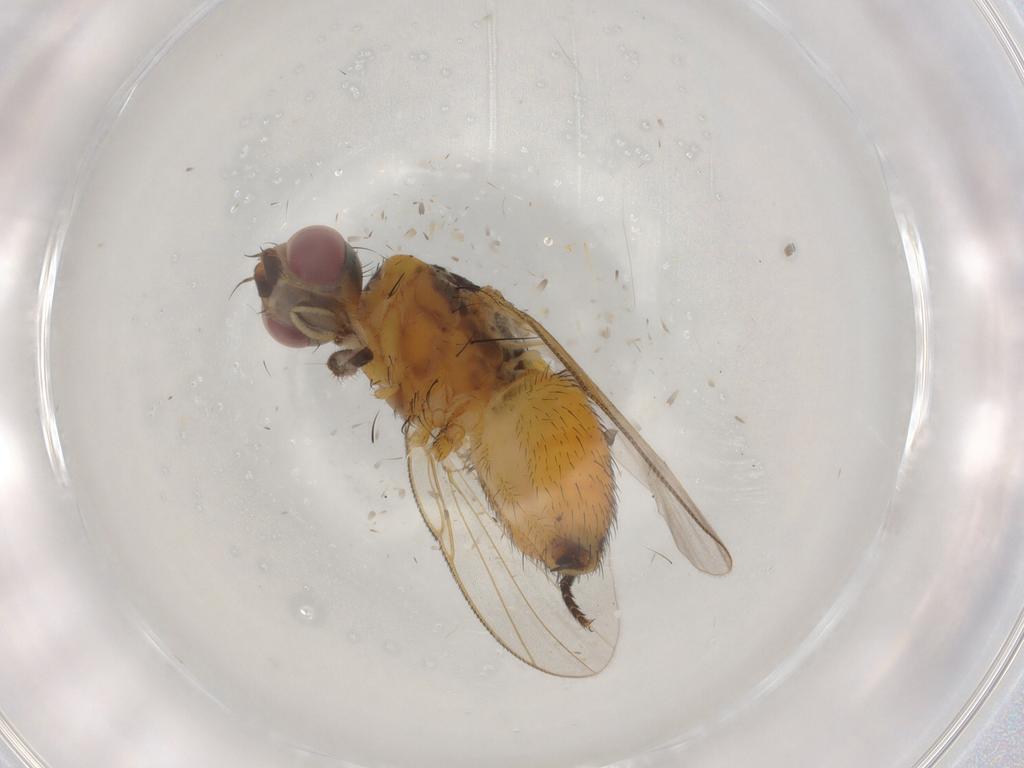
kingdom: Animalia
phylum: Arthropoda
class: Insecta
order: Diptera
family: Muscidae
